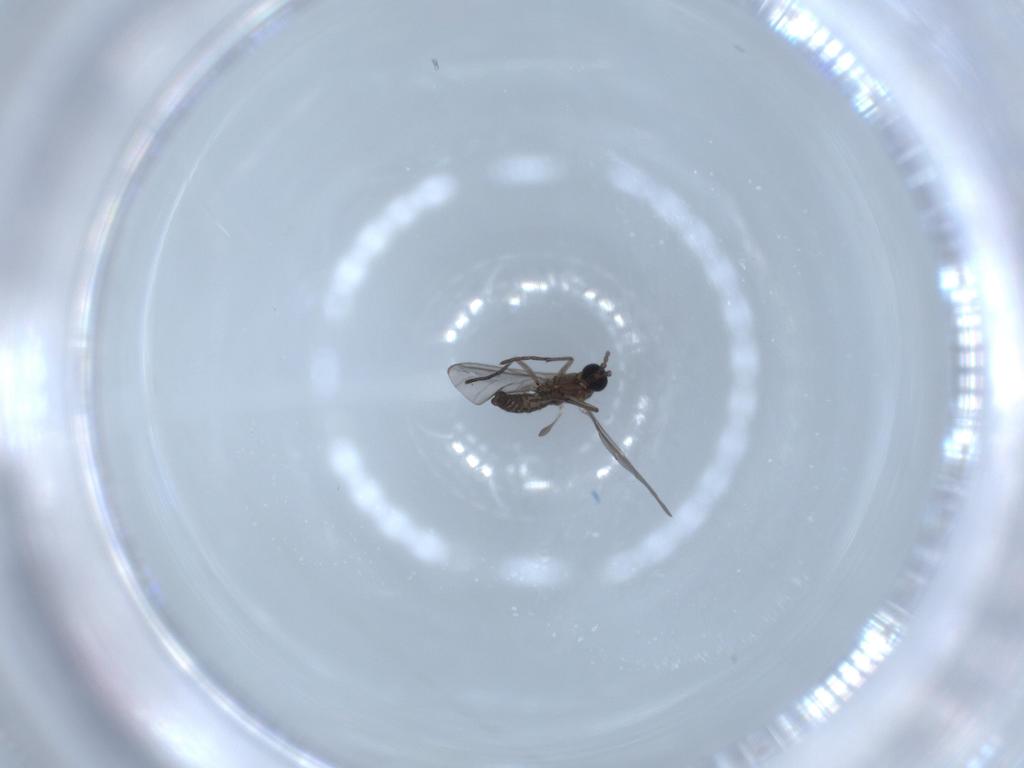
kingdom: Animalia
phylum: Arthropoda
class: Insecta
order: Diptera
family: Sciaridae
